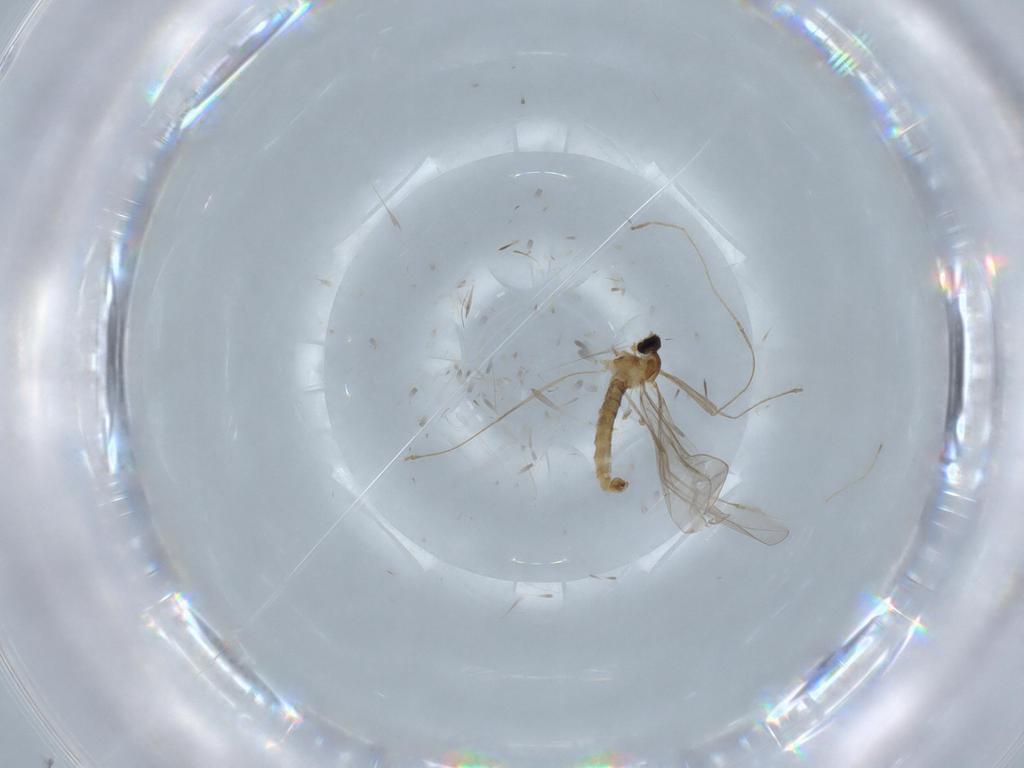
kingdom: Animalia
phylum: Arthropoda
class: Insecta
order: Diptera
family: Cecidomyiidae
